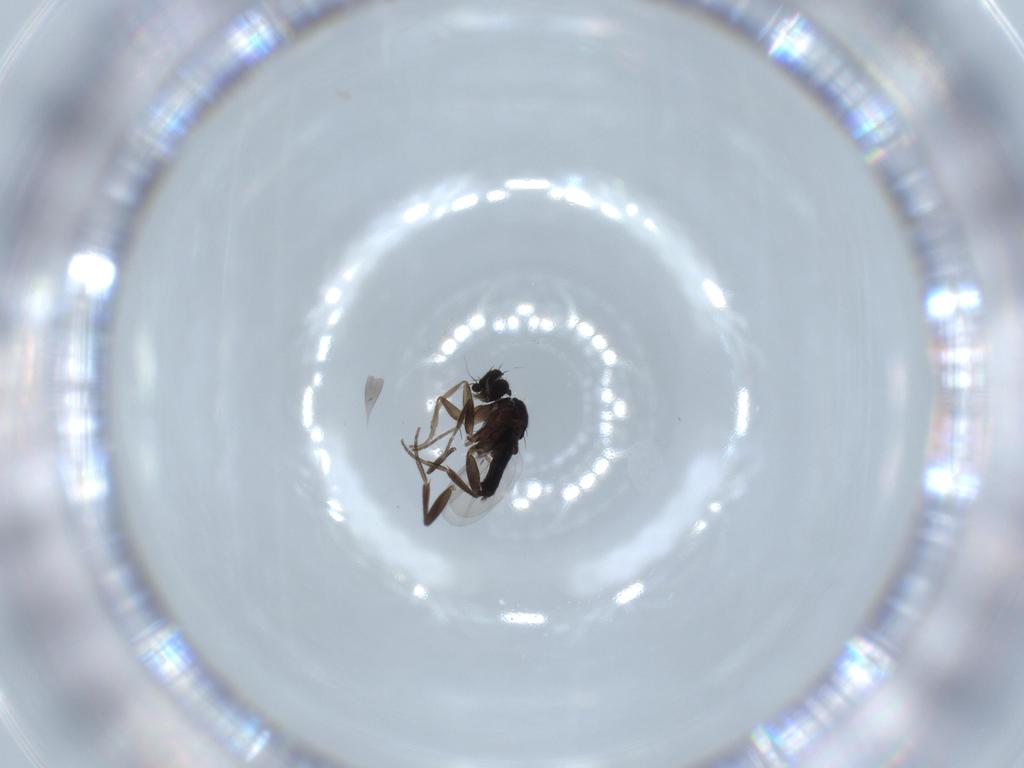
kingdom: Animalia
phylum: Arthropoda
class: Insecta
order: Diptera
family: Phoridae
